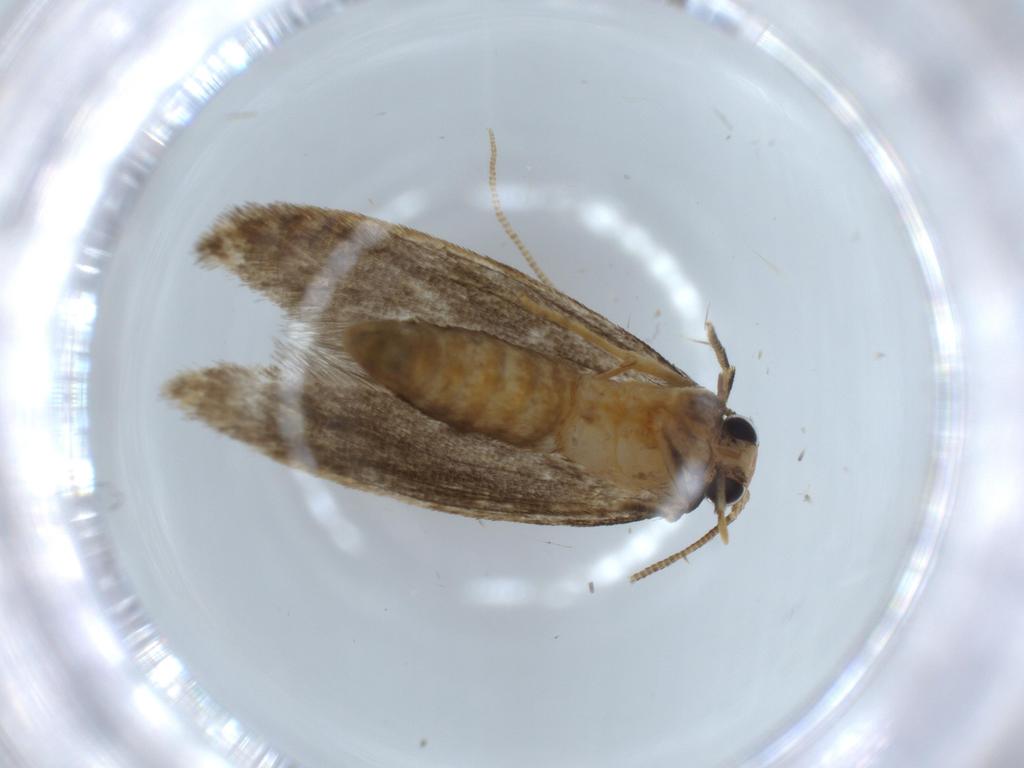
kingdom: Animalia
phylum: Arthropoda
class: Insecta
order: Lepidoptera
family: Tineidae
